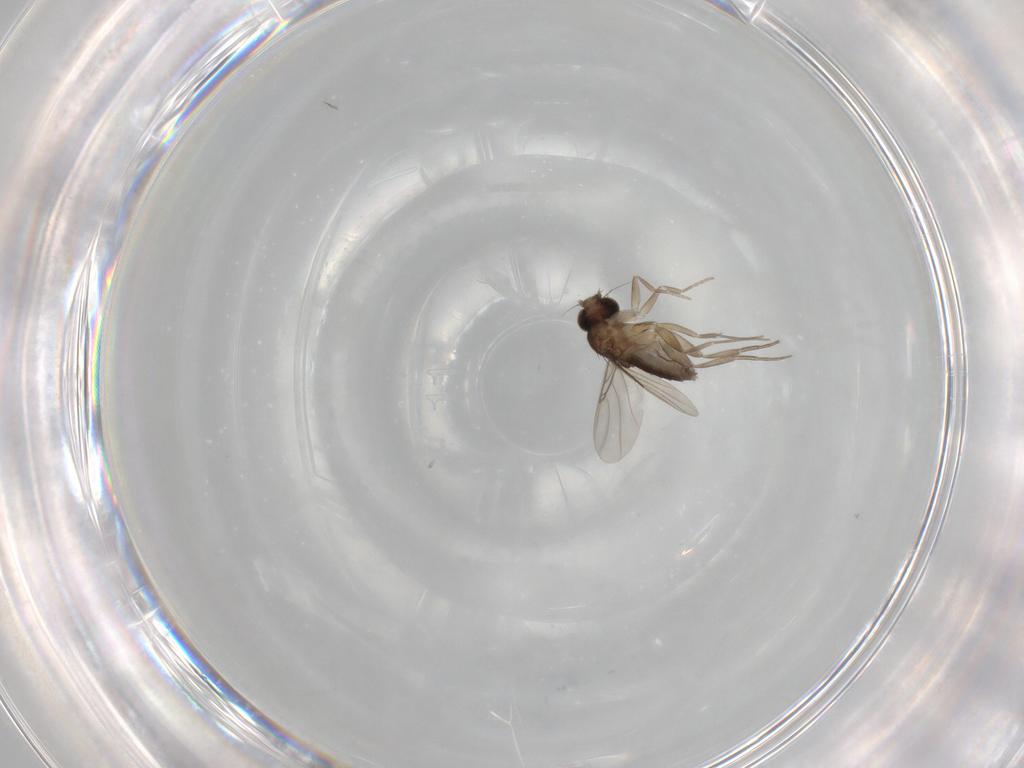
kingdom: Animalia
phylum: Arthropoda
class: Insecta
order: Diptera
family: Phoridae
